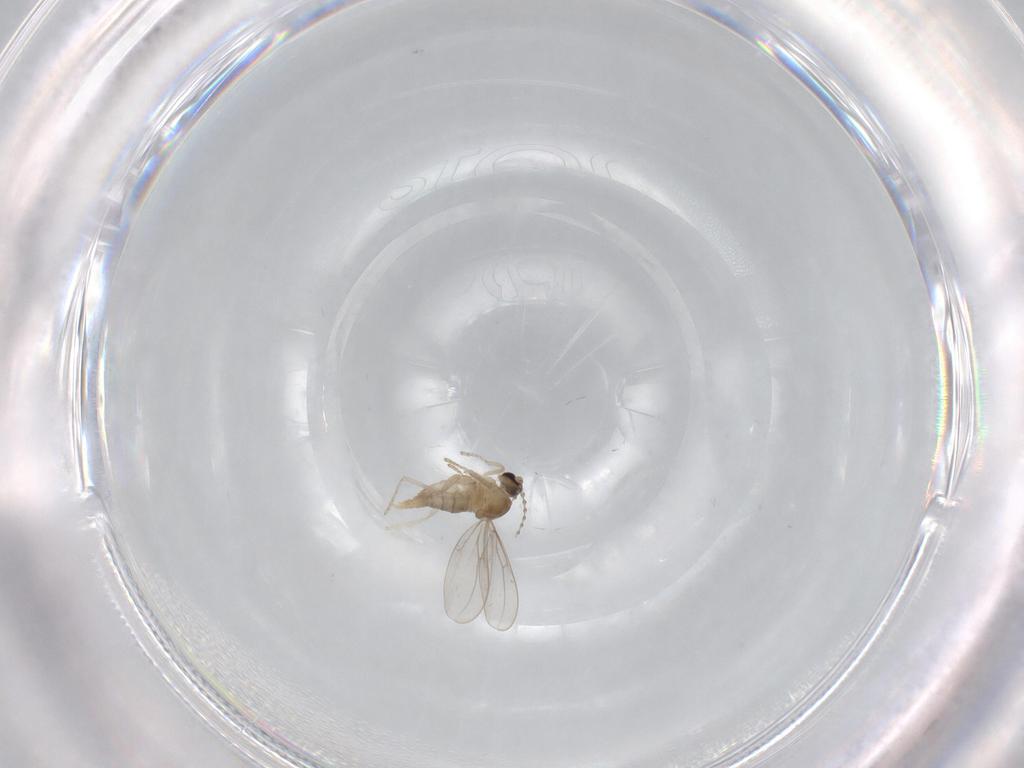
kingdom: Animalia
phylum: Arthropoda
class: Insecta
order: Diptera
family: Cecidomyiidae
